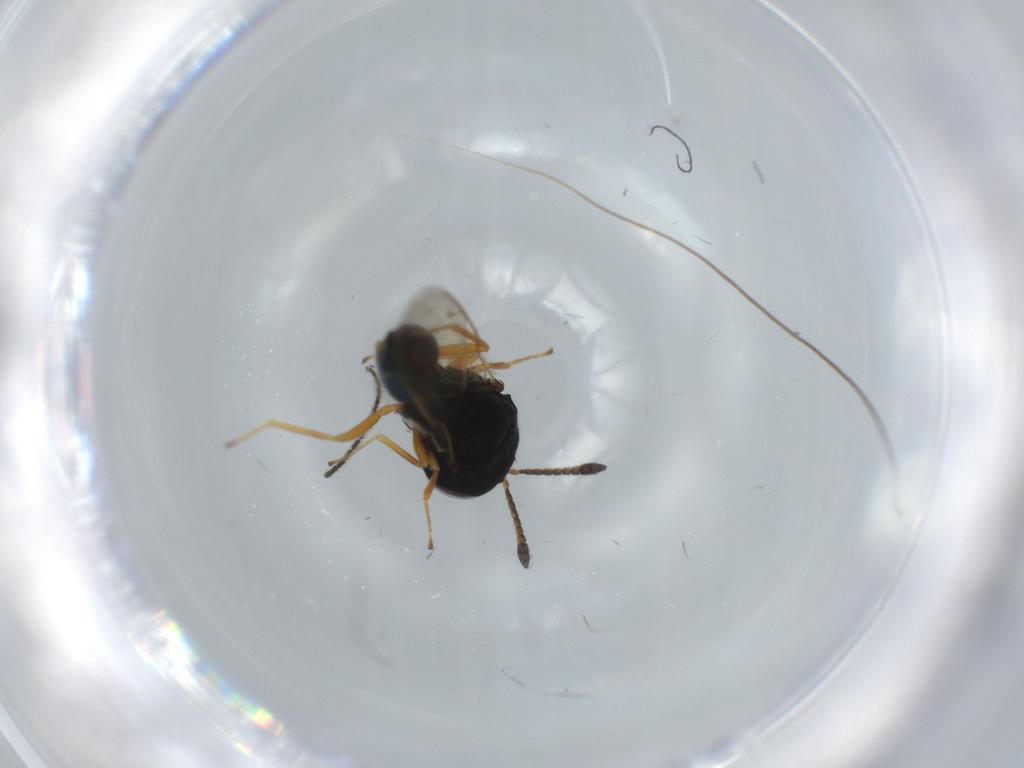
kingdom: Animalia
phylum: Arthropoda
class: Insecta
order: Hymenoptera
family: Pteromalidae
